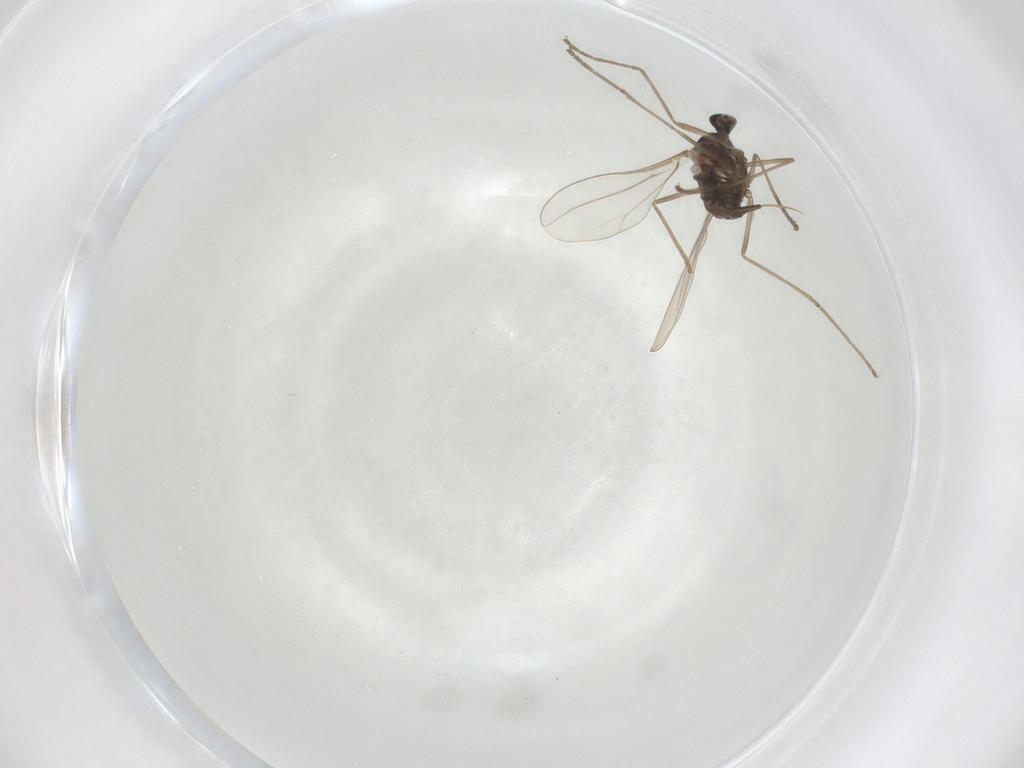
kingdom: Animalia
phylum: Arthropoda
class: Insecta
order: Diptera
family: Cecidomyiidae
